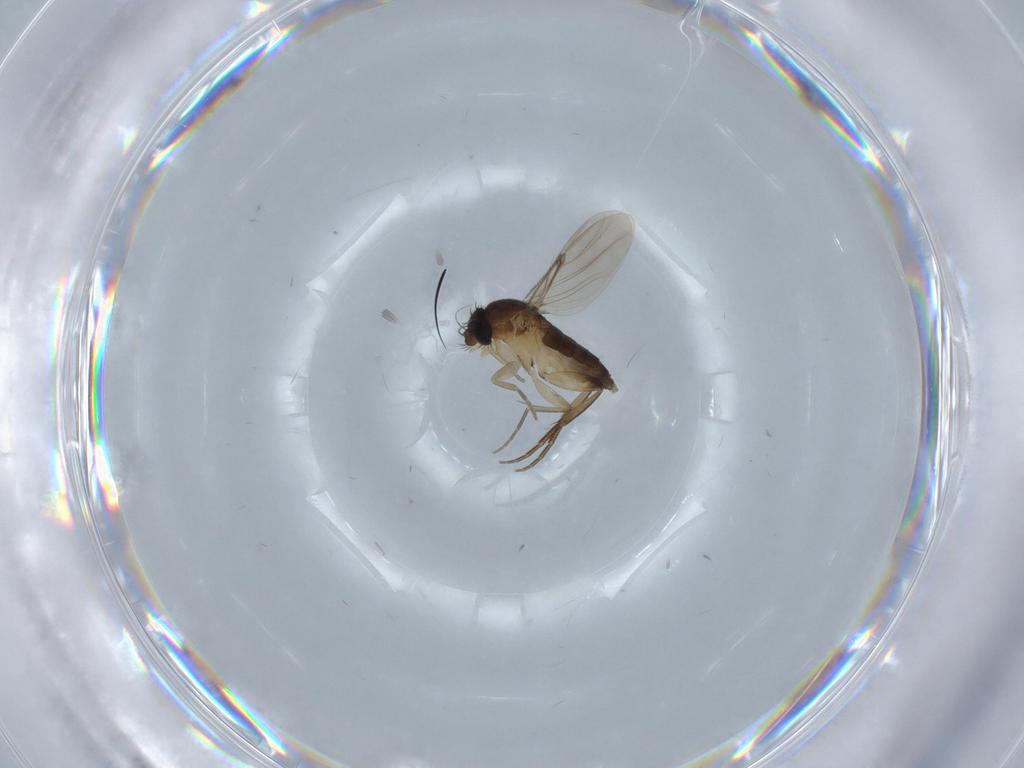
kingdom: Animalia
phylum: Arthropoda
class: Insecta
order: Diptera
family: Phoridae
